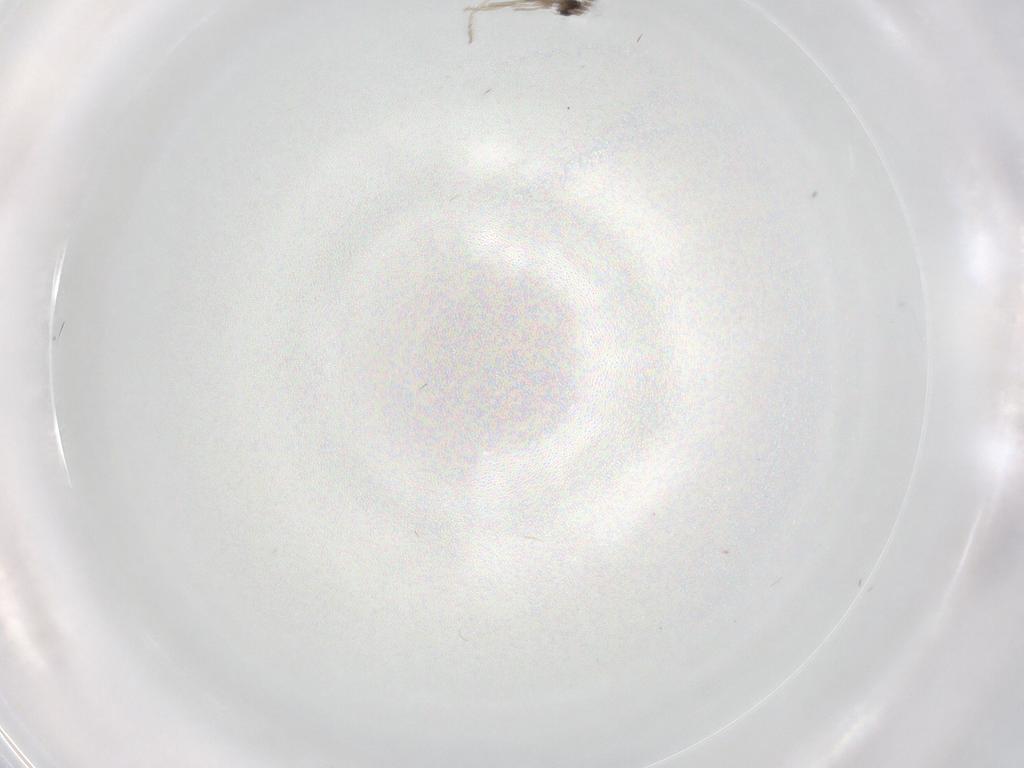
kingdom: Animalia
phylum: Arthropoda
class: Insecta
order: Diptera
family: Cecidomyiidae
